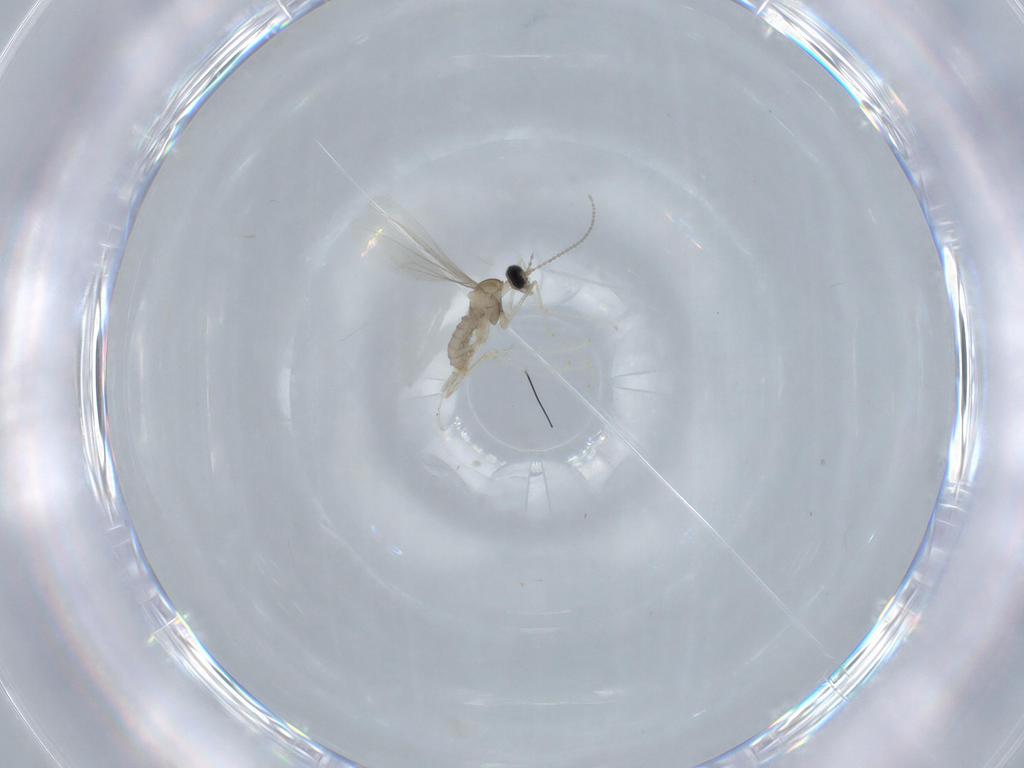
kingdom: Animalia
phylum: Arthropoda
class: Insecta
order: Diptera
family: Cecidomyiidae
